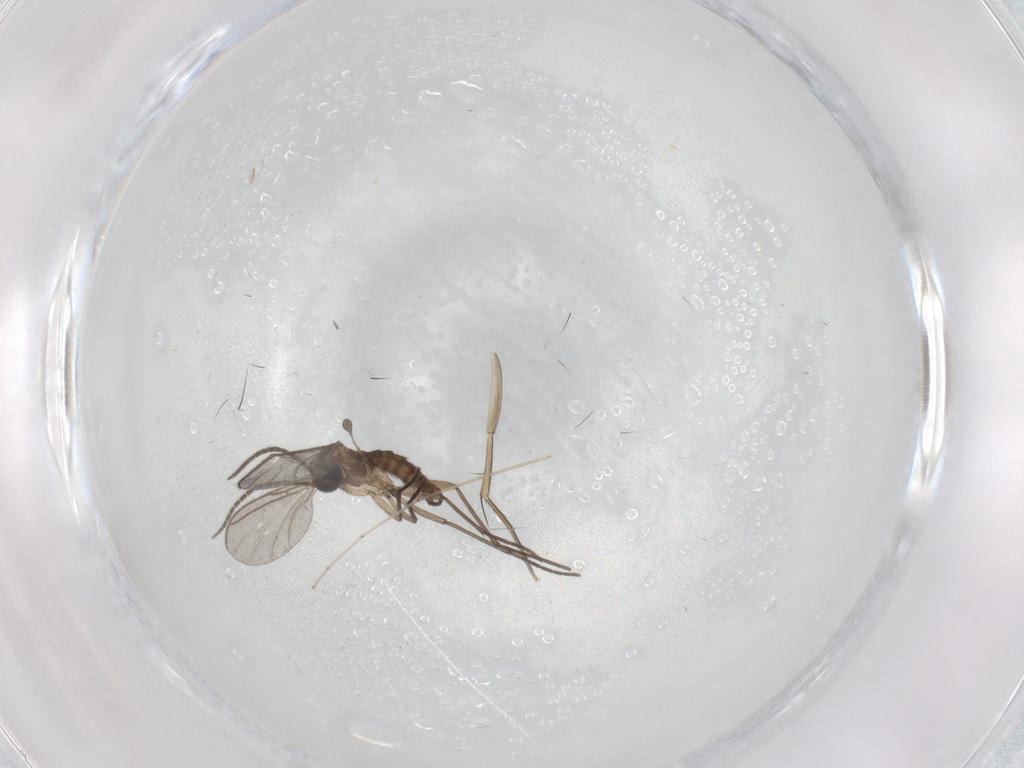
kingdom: Animalia
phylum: Arthropoda
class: Insecta
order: Diptera
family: Sciaridae
